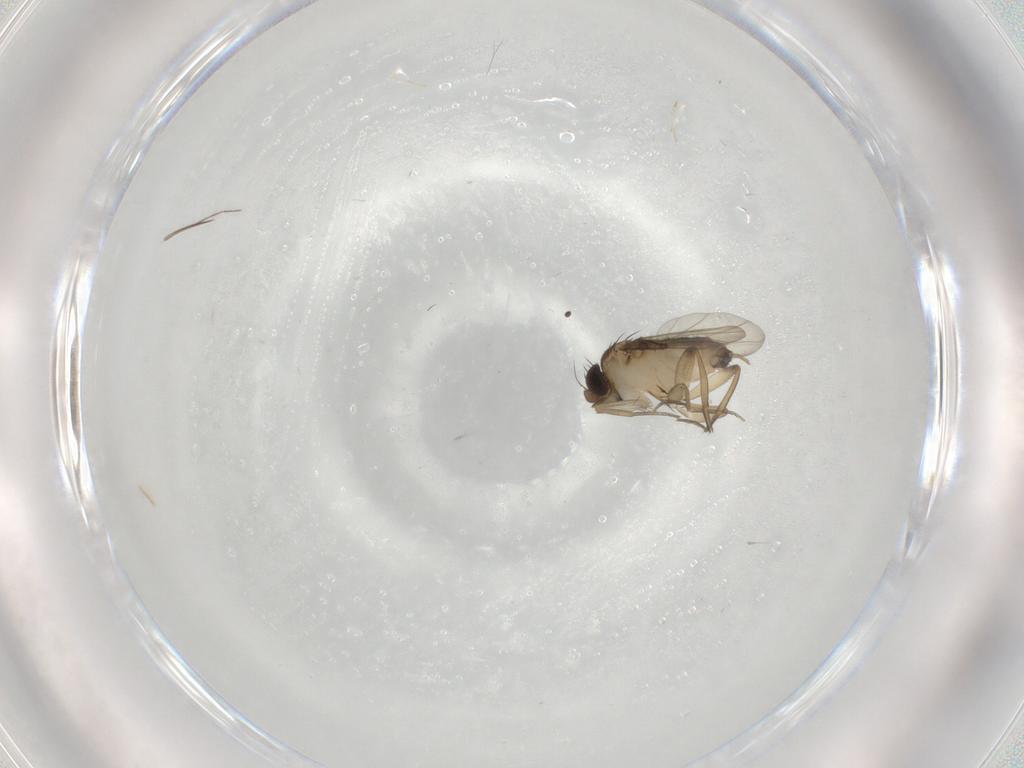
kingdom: Animalia
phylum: Arthropoda
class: Insecta
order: Diptera
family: Phoridae
